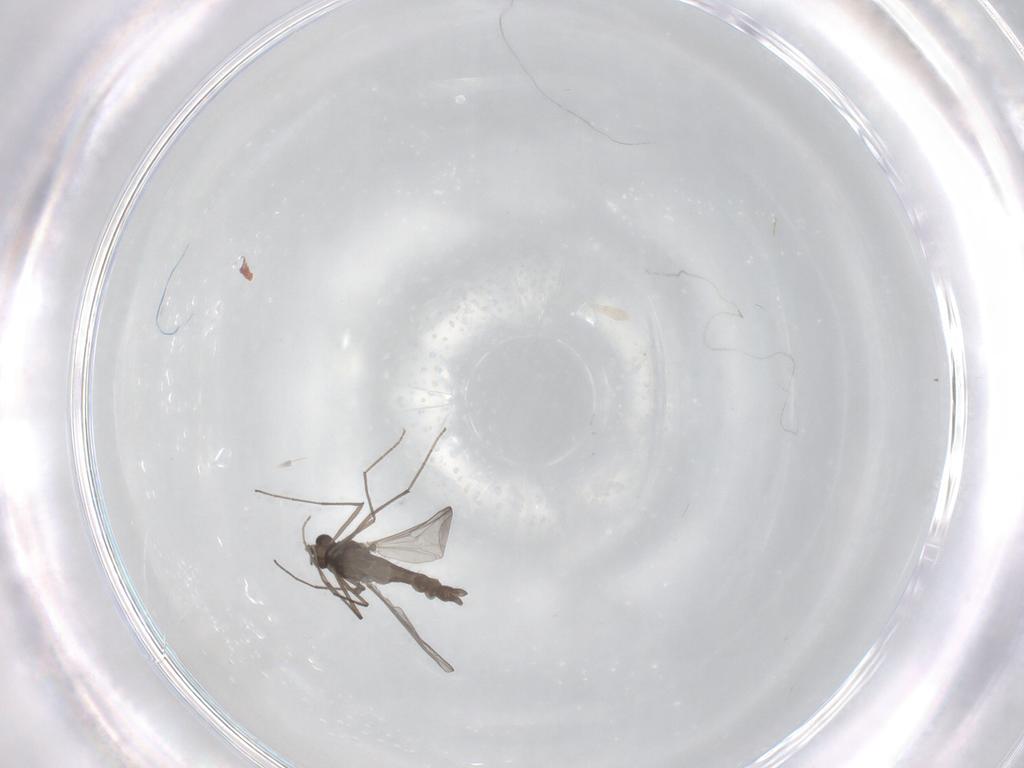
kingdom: Animalia
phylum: Arthropoda
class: Insecta
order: Diptera
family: Chironomidae
